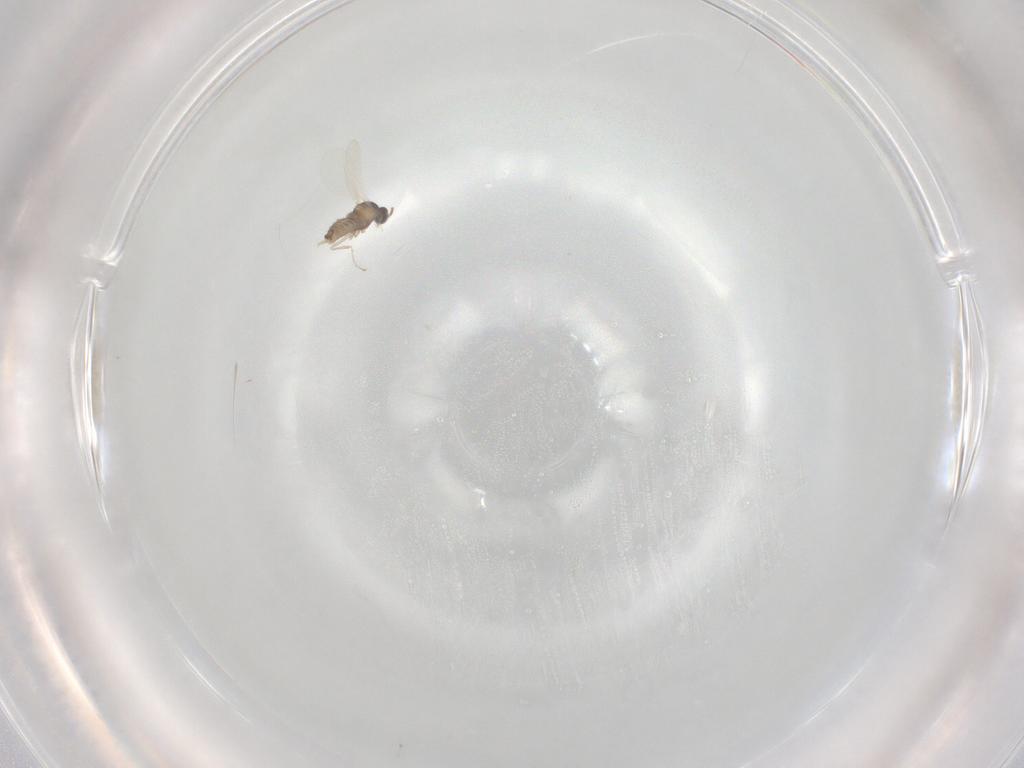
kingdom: Animalia
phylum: Arthropoda
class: Insecta
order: Diptera
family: Cecidomyiidae
